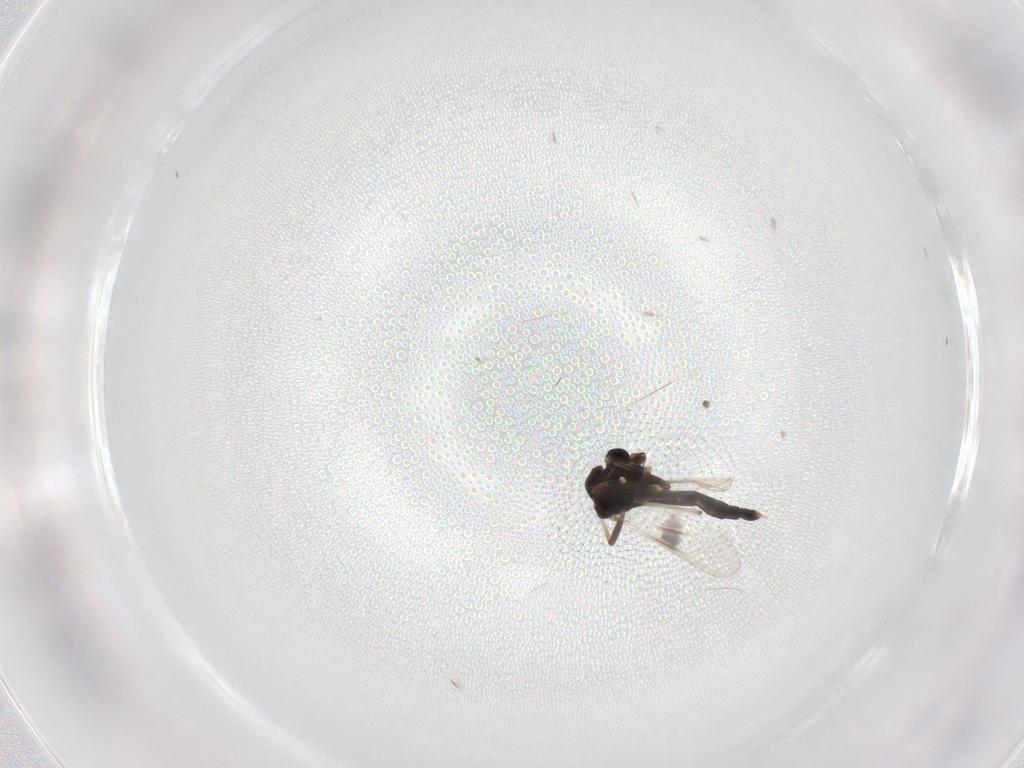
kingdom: Animalia
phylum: Arthropoda
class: Insecta
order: Diptera
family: Chironomidae
